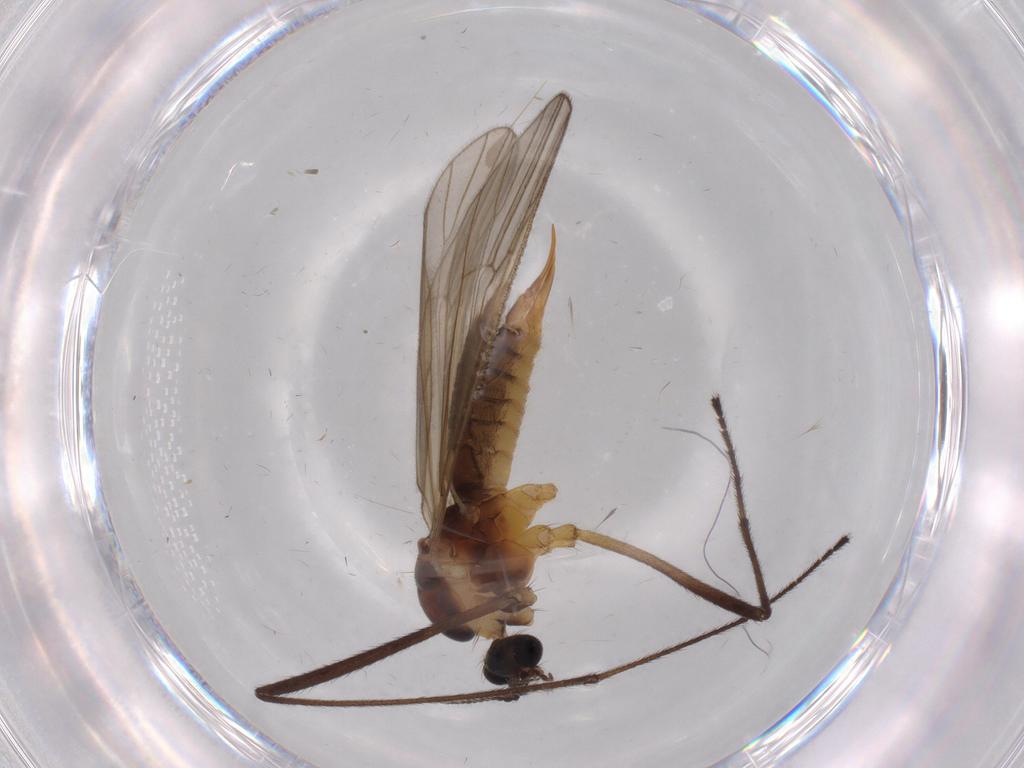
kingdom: Animalia
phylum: Arthropoda
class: Insecta
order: Diptera
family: Agromyzidae
